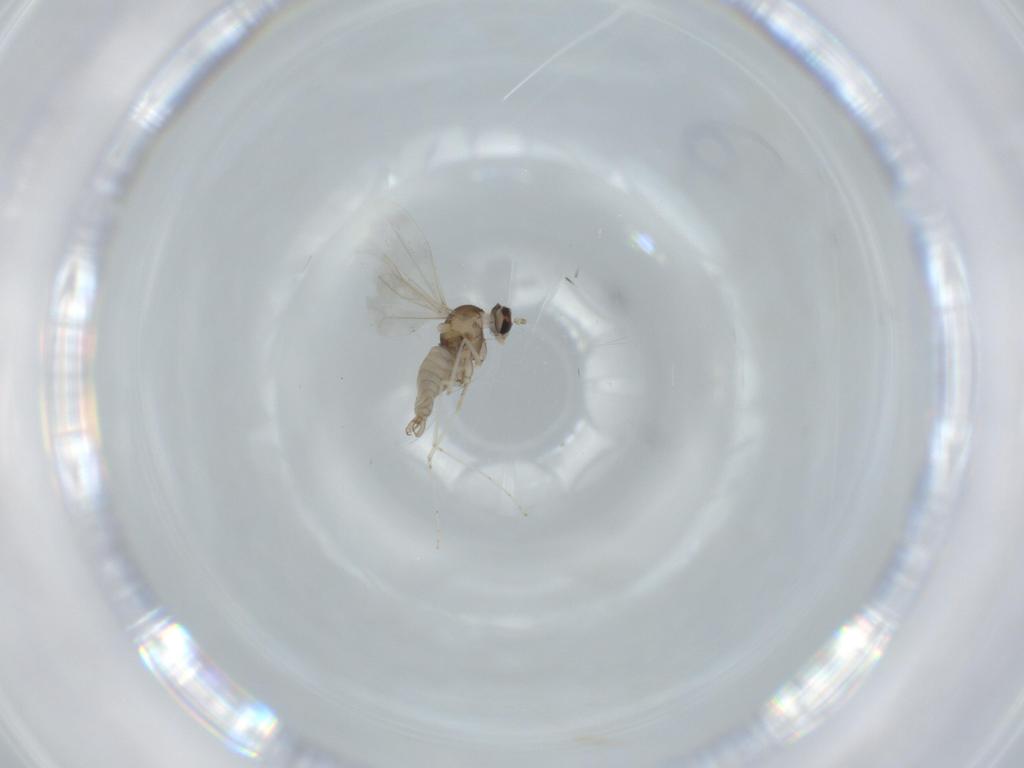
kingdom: Animalia
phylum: Arthropoda
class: Insecta
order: Diptera
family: Cecidomyiidae
